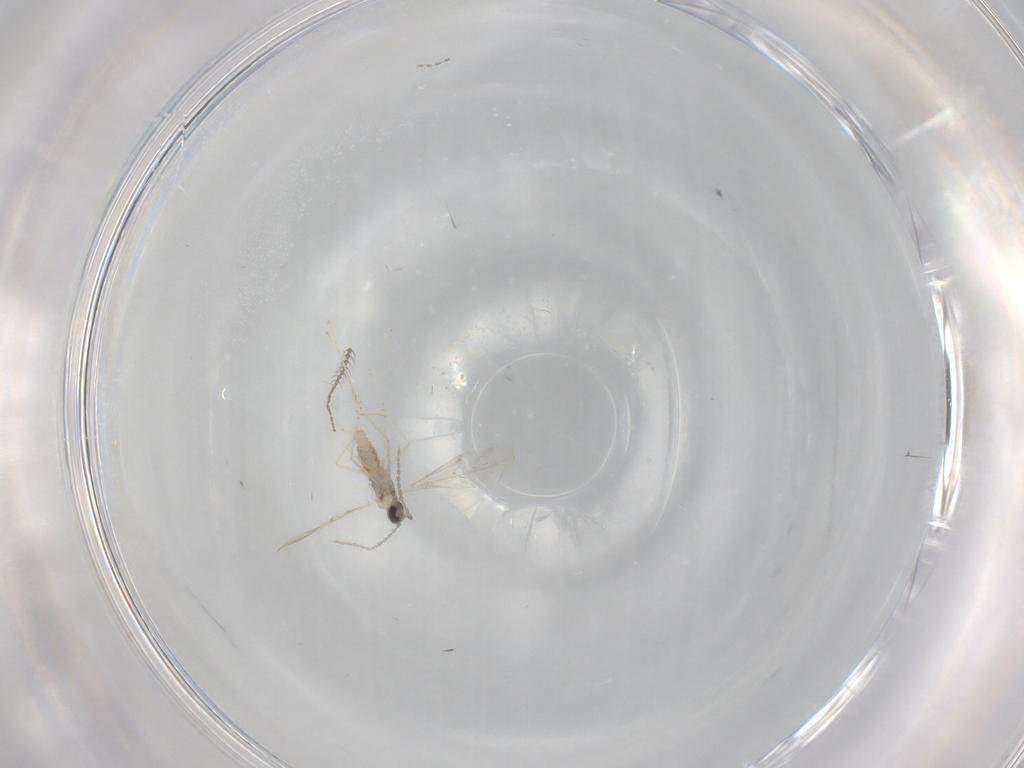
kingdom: Animalia
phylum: Arthropoda
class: Insecta
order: Diptera
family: Cecidomyiidae
